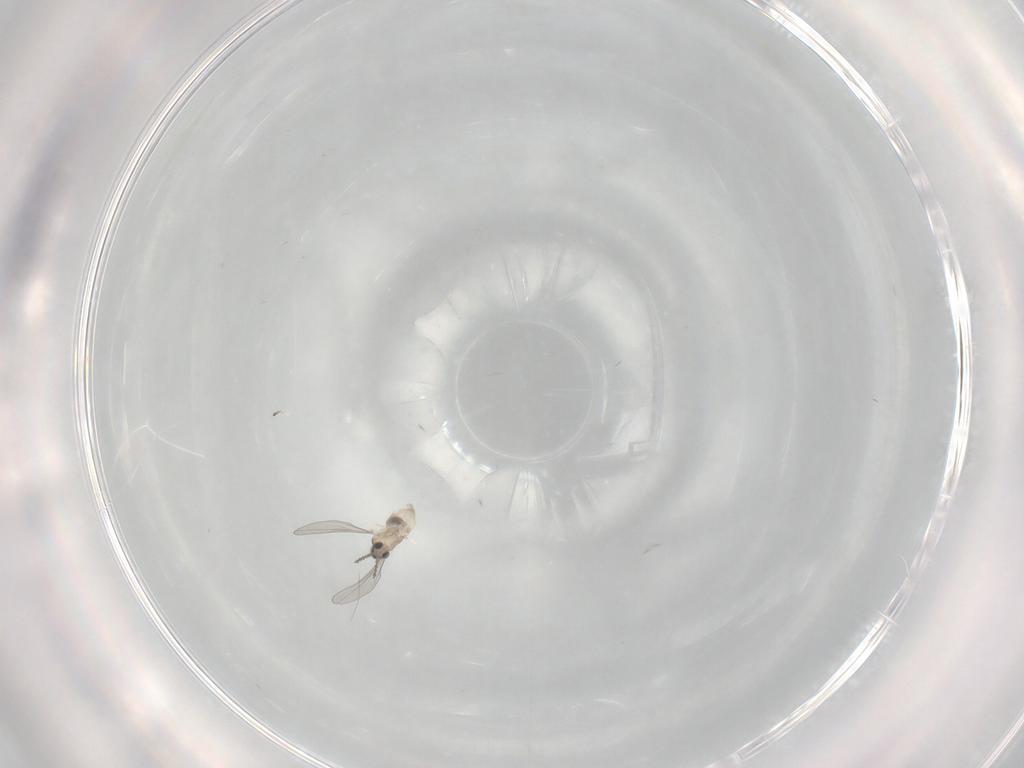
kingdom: Animalia
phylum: Arthropoda
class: Insecta
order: Diptera
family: Cecidomyiidae
